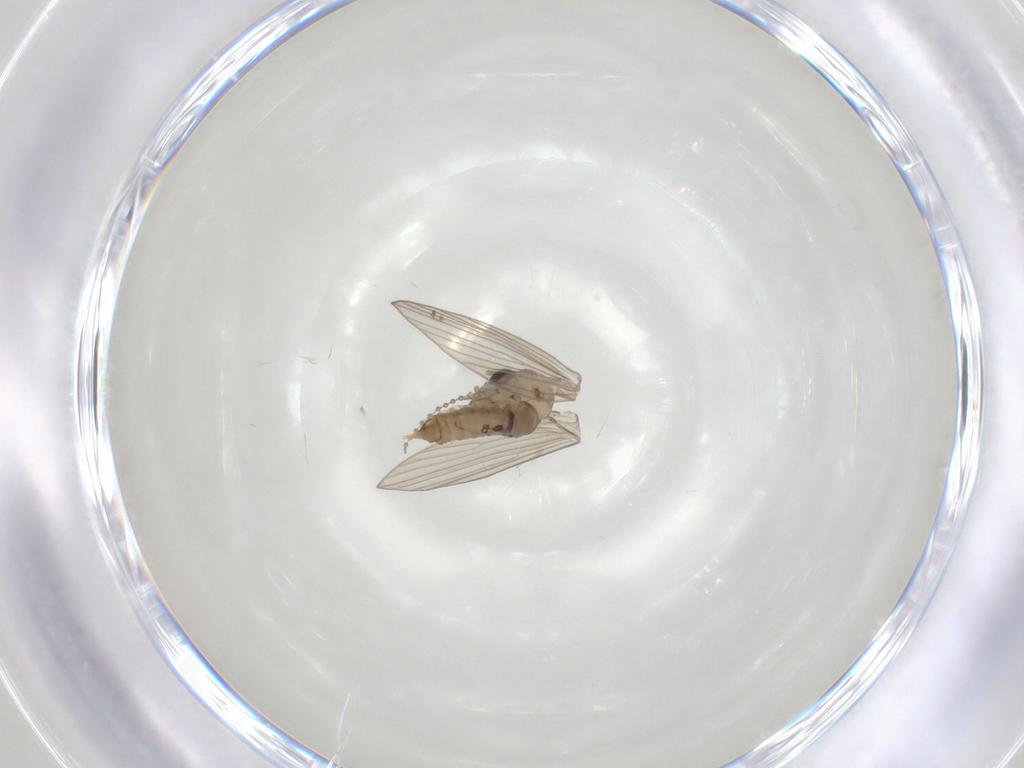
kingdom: Animalia
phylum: Arthropoda
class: Insecta
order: Diptera
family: Psychodidae
